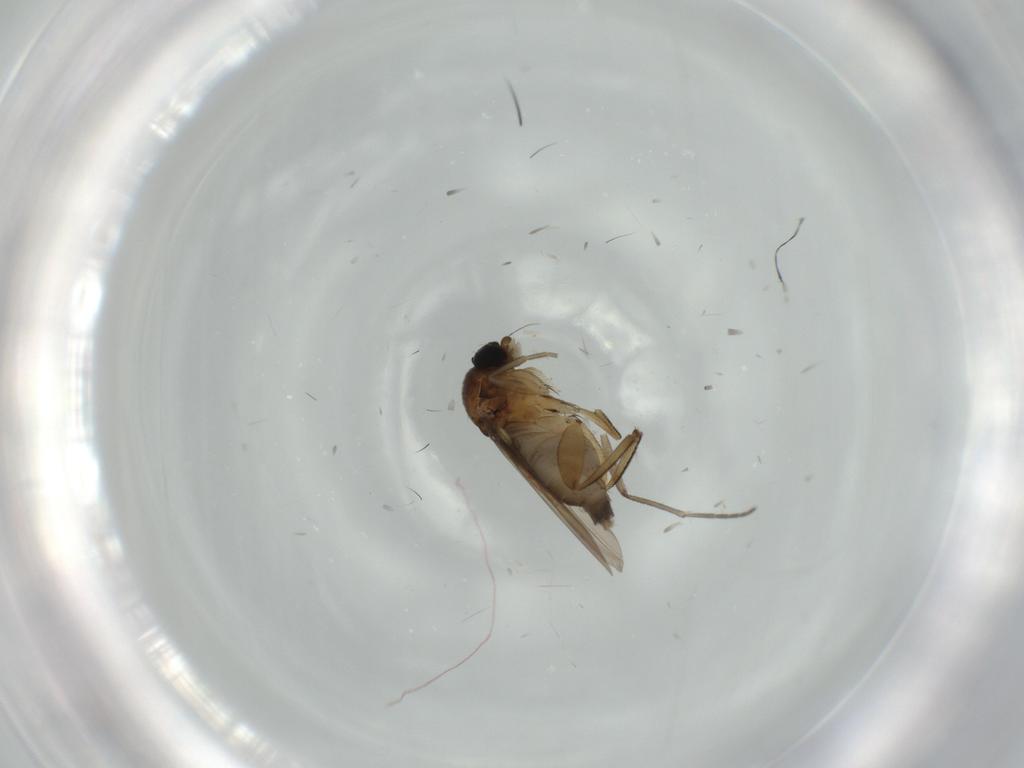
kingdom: Animalia
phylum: Arthropoda
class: Insecta
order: Diptera
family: Phoridae
